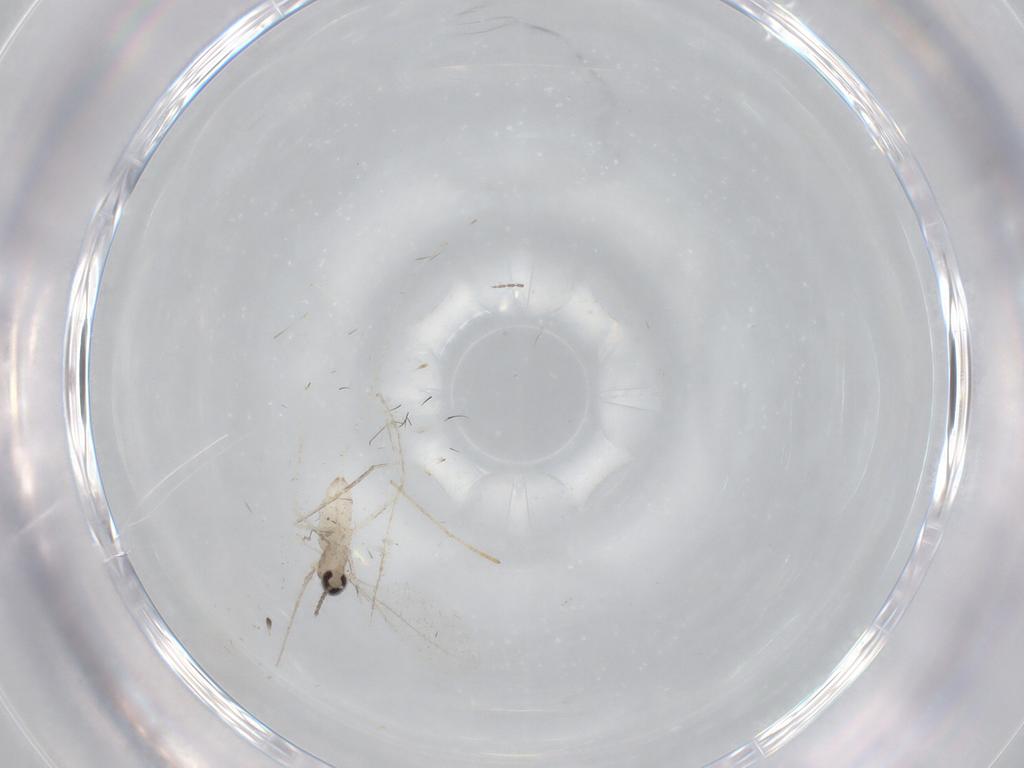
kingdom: Animalia
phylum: Arthropoda
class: Insecta
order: Diptera
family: Cecidomyiidae
